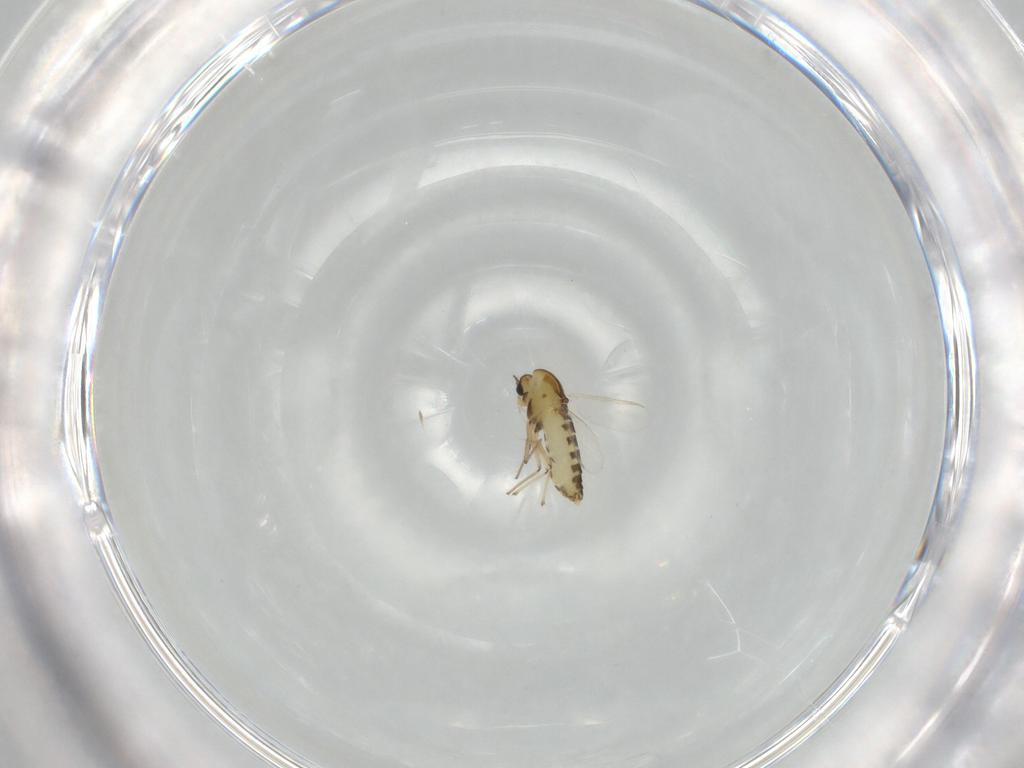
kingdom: Animalia
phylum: Arthropoda
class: Insecta
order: Diptera
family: Chironomidae
